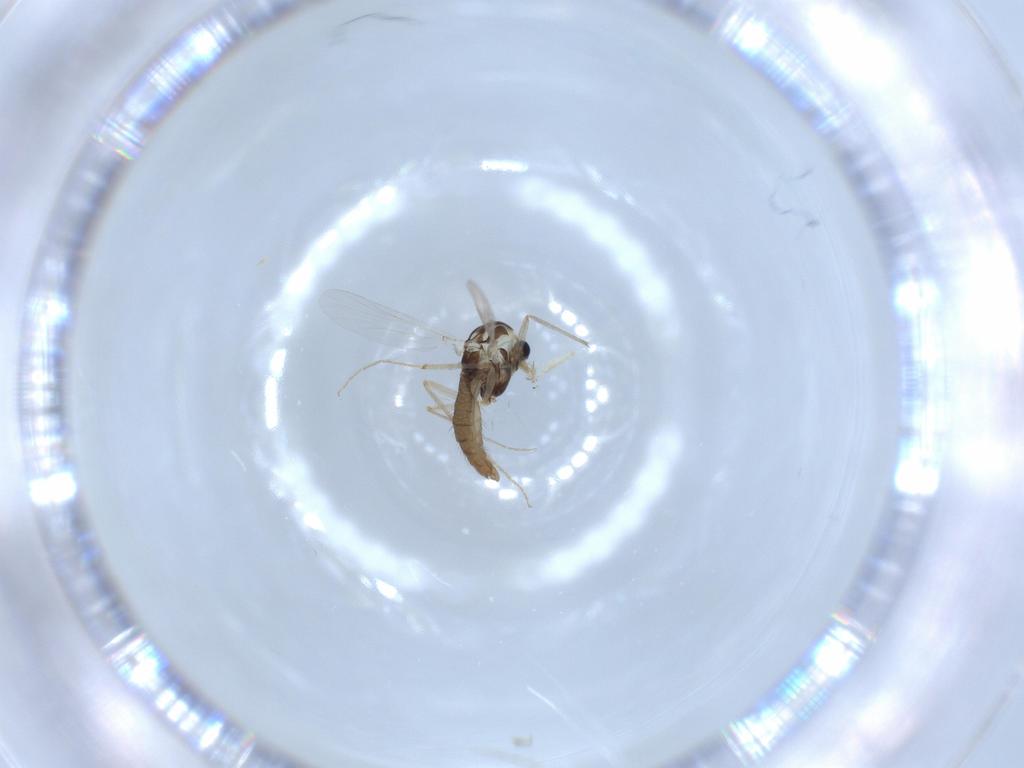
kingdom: Animalia
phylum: Arthropoda
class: Insecta
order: Diptera
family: Chironomidae
